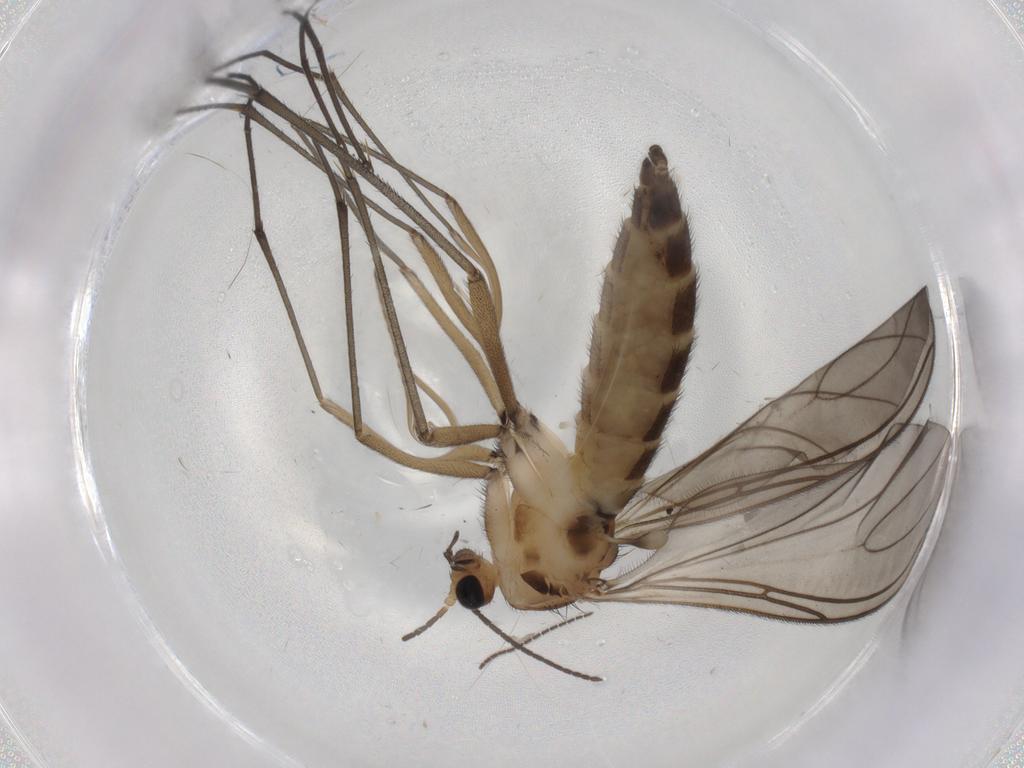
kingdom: Animalia
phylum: Arthropoda
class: Insecta
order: Diptera
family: Sciaridae
